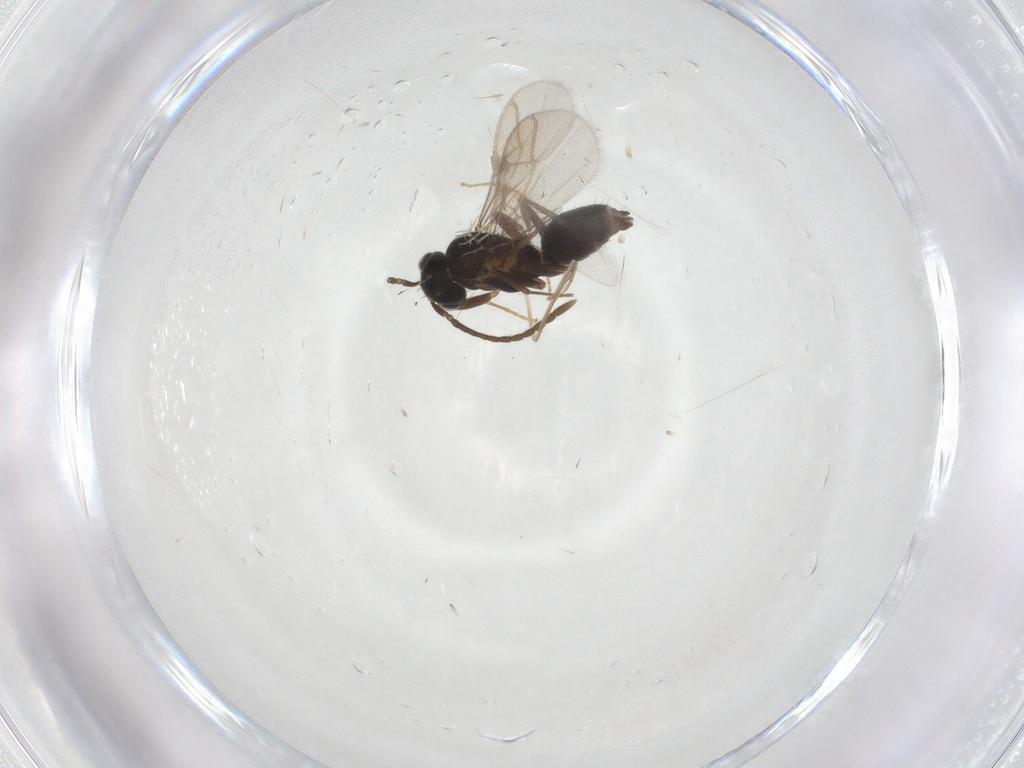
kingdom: Animalia
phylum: Arthropoda
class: Insecta
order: Hymenoptera
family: Formicidae
